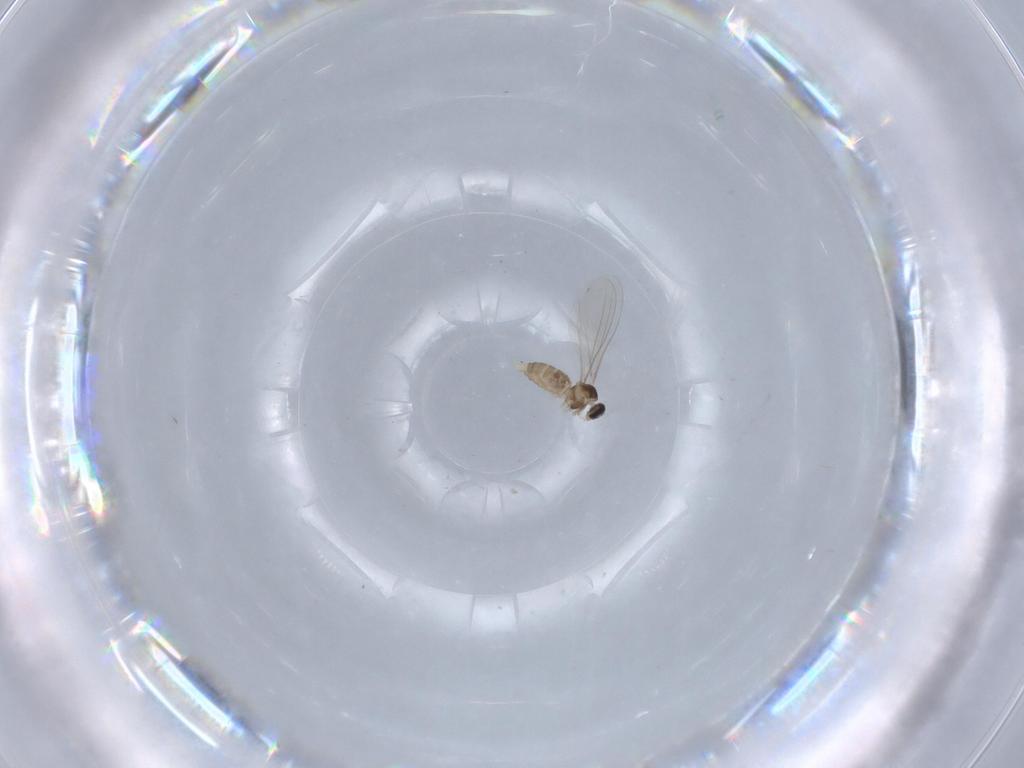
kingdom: Animalia
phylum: Arthropoda
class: Insecta
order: Diptera
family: Cecidomyiidae
